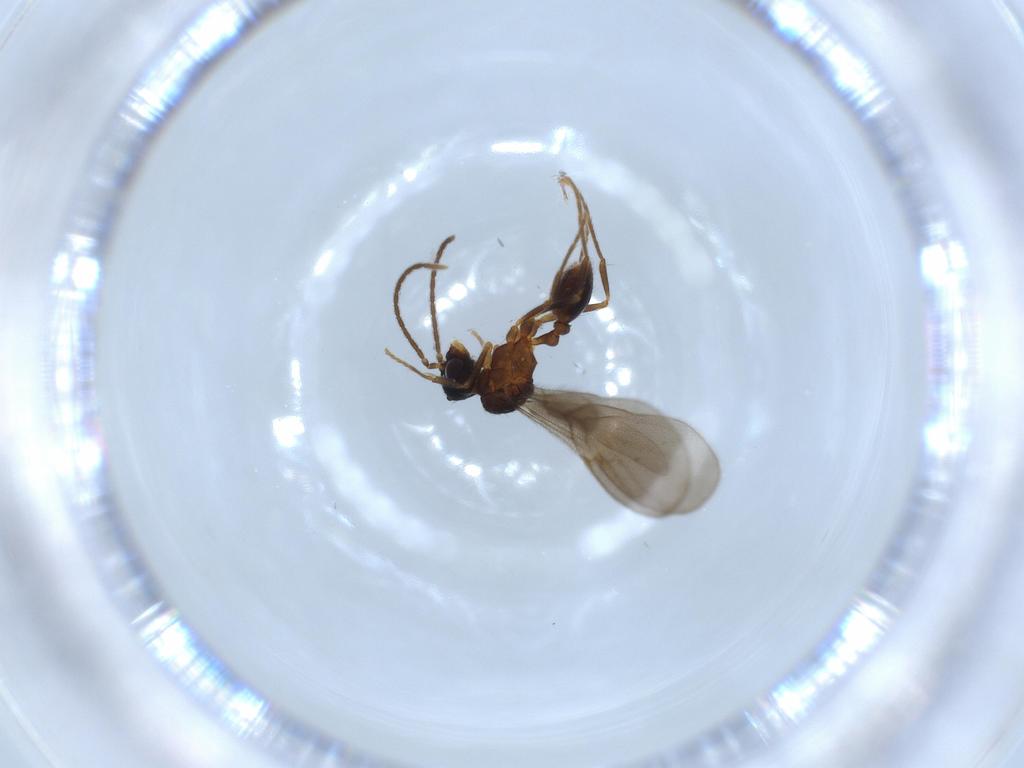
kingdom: Animalia
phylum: Arthropoda
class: Insecta
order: Hymenoptera
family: Formicidae
